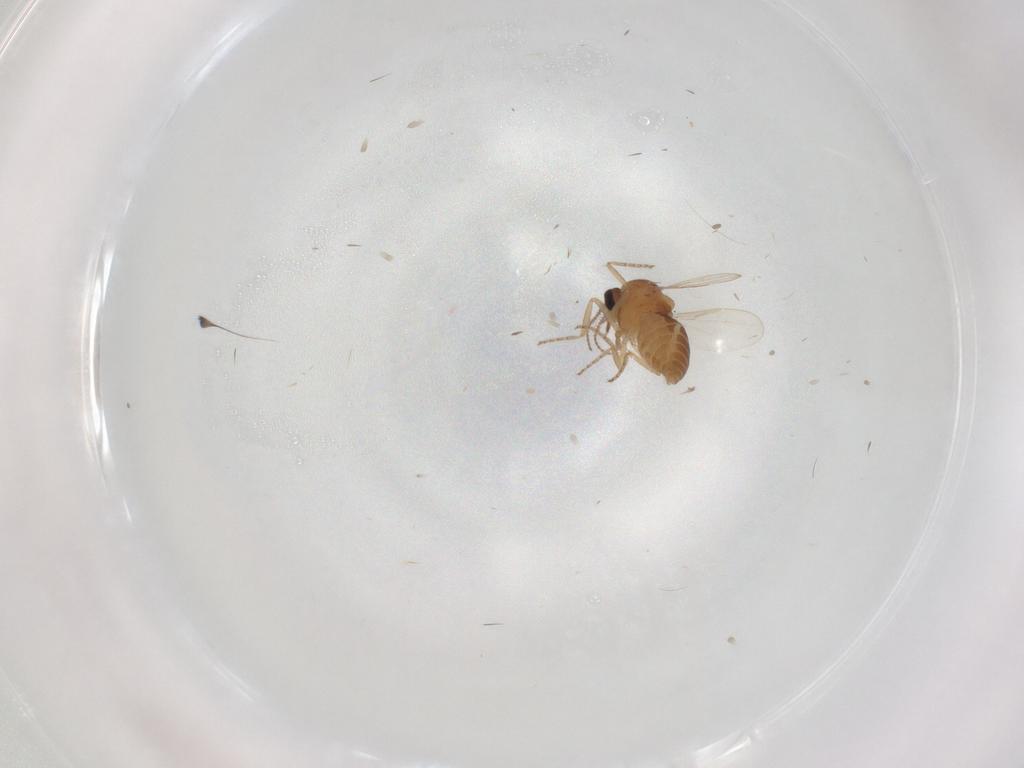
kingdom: Animalia
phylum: Arthropoda
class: Insecta
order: Diptera
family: Ceratopogonidae
